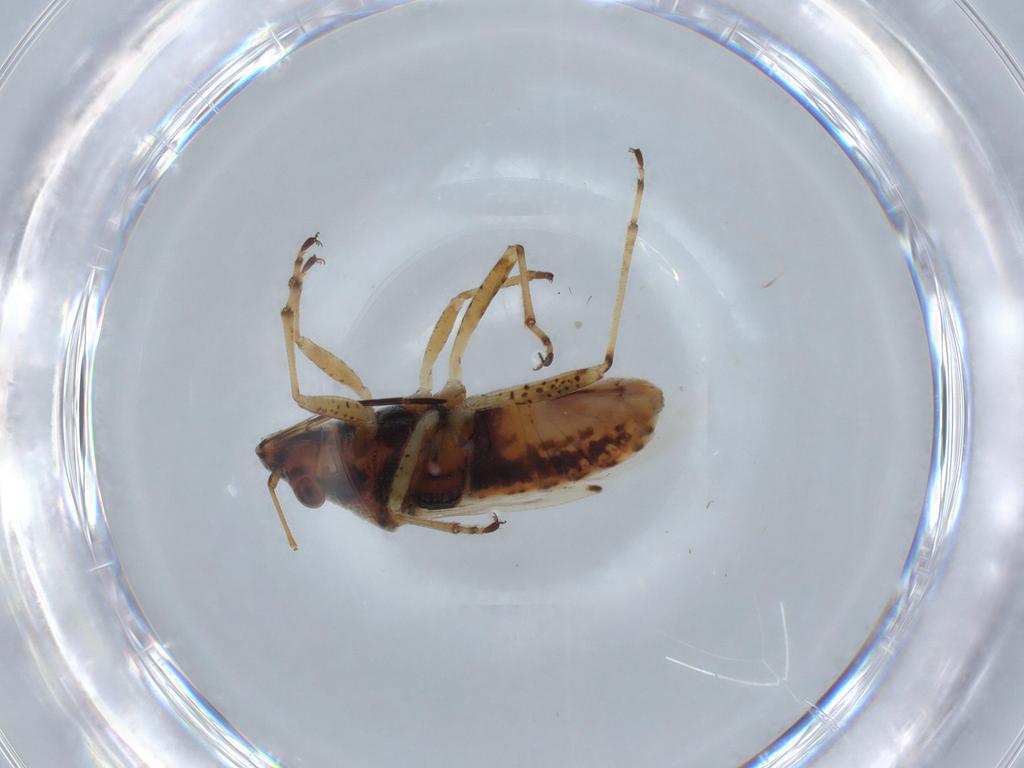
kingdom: Animalia
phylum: Arthropoda
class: Insecta
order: Hemiptera
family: Lygaeidae
